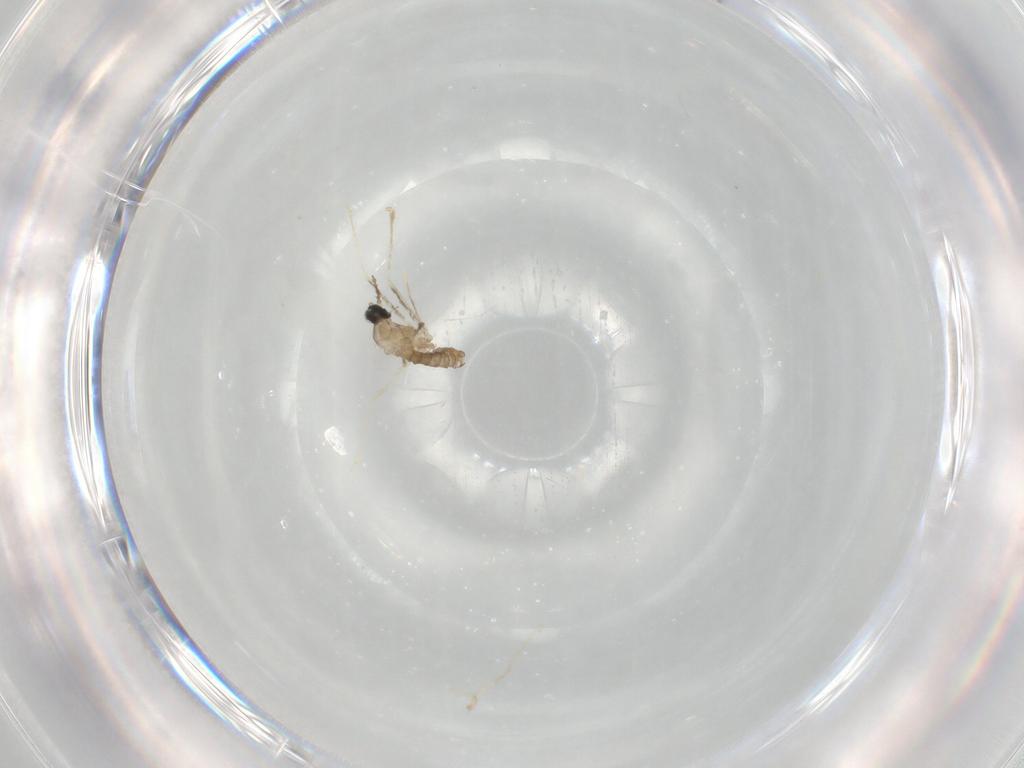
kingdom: Animalia
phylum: Arthropoda
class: Insecta
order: Diptera
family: Cecidomyiidae
